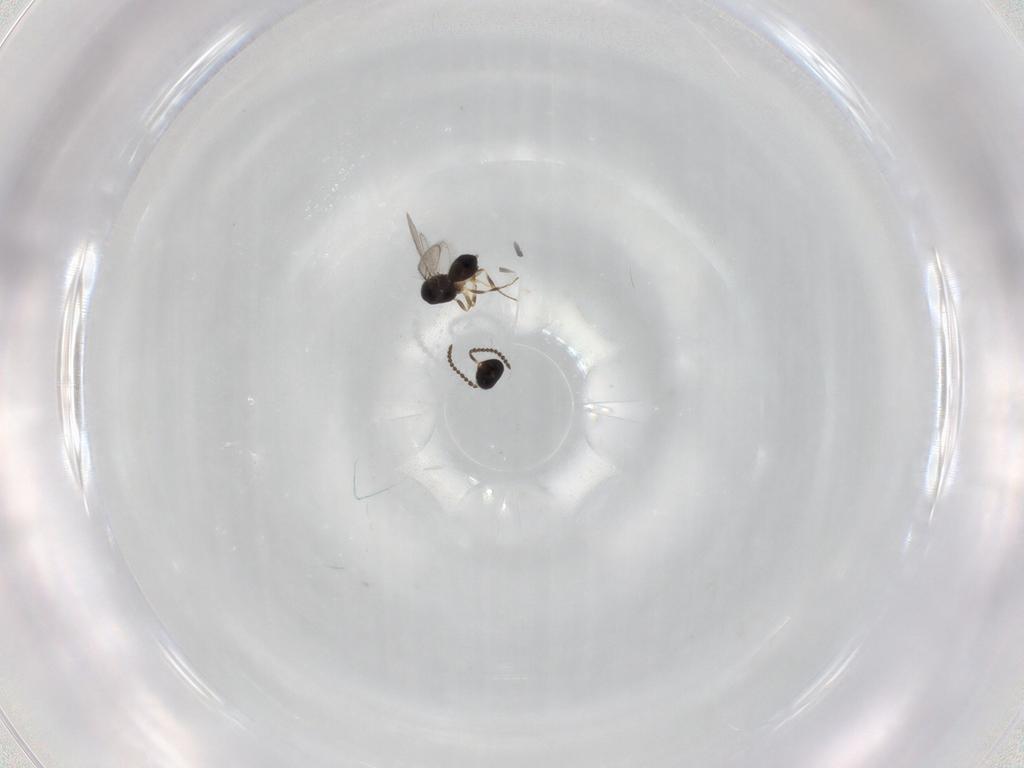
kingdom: Animalia
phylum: Arthropoda
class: Insecta
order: Hymenoptera
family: Scelionidae
